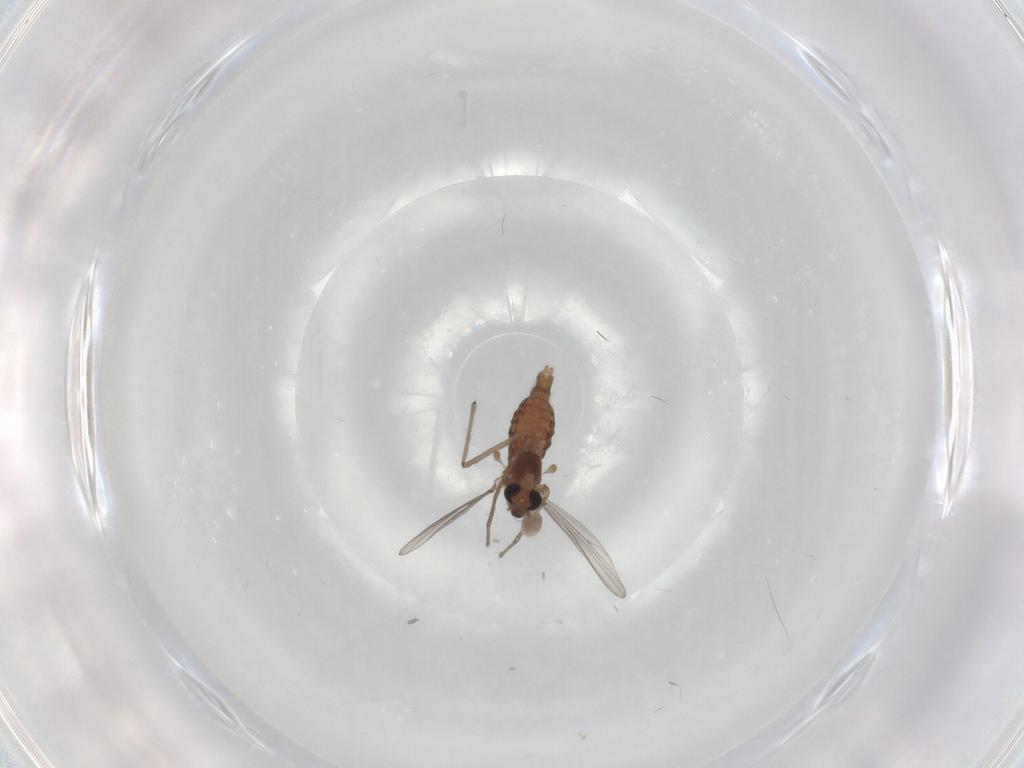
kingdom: Animalia
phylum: Arthropoda
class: Insecta
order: Diptera
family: Chironomidae
